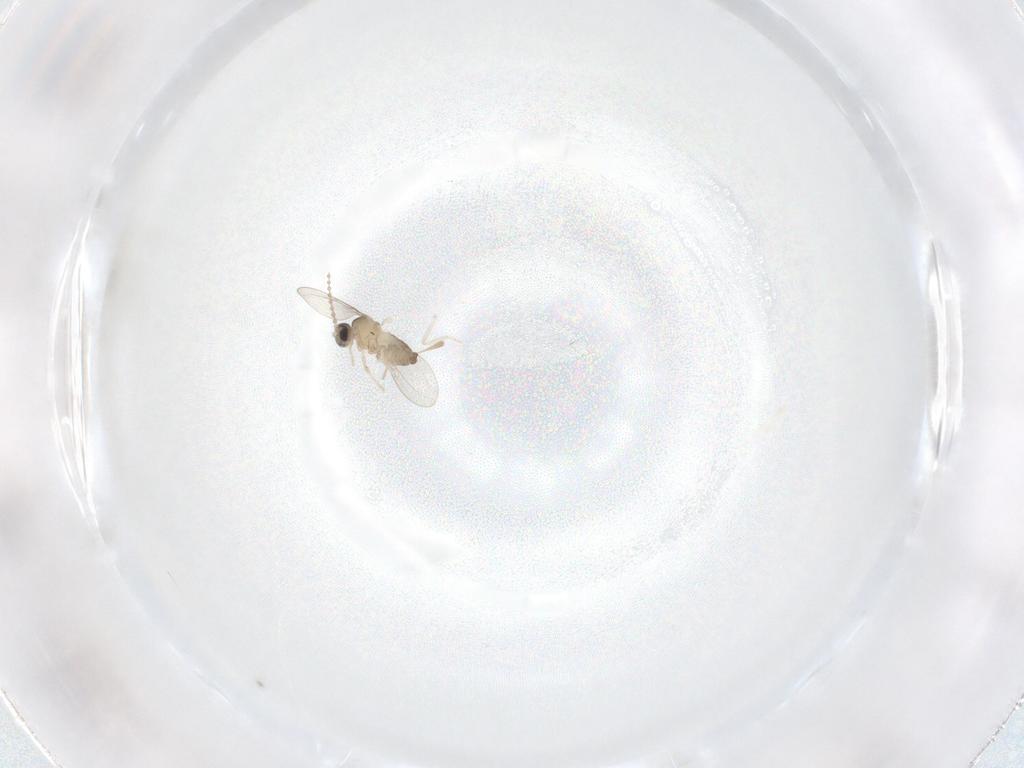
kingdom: Animalia
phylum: Arthropoda
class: Insecta
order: Diptera
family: Cecidomyiidae
